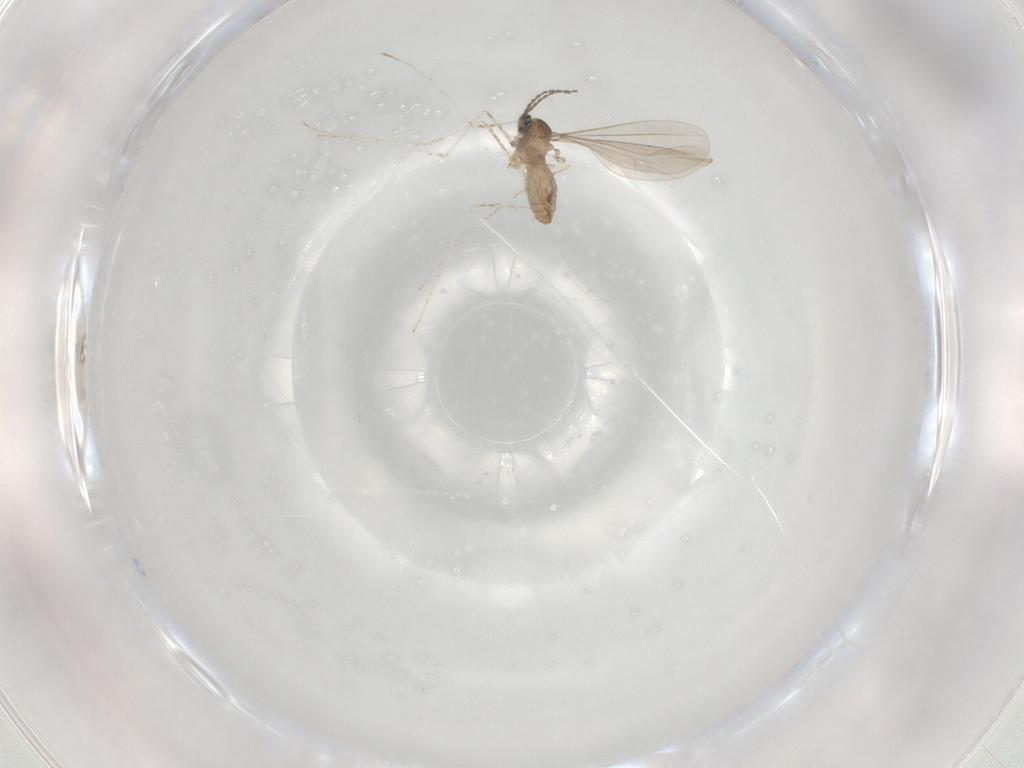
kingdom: Animalia
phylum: Arthropoda
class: Insecta
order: Diptera
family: Cecidomyiidae
